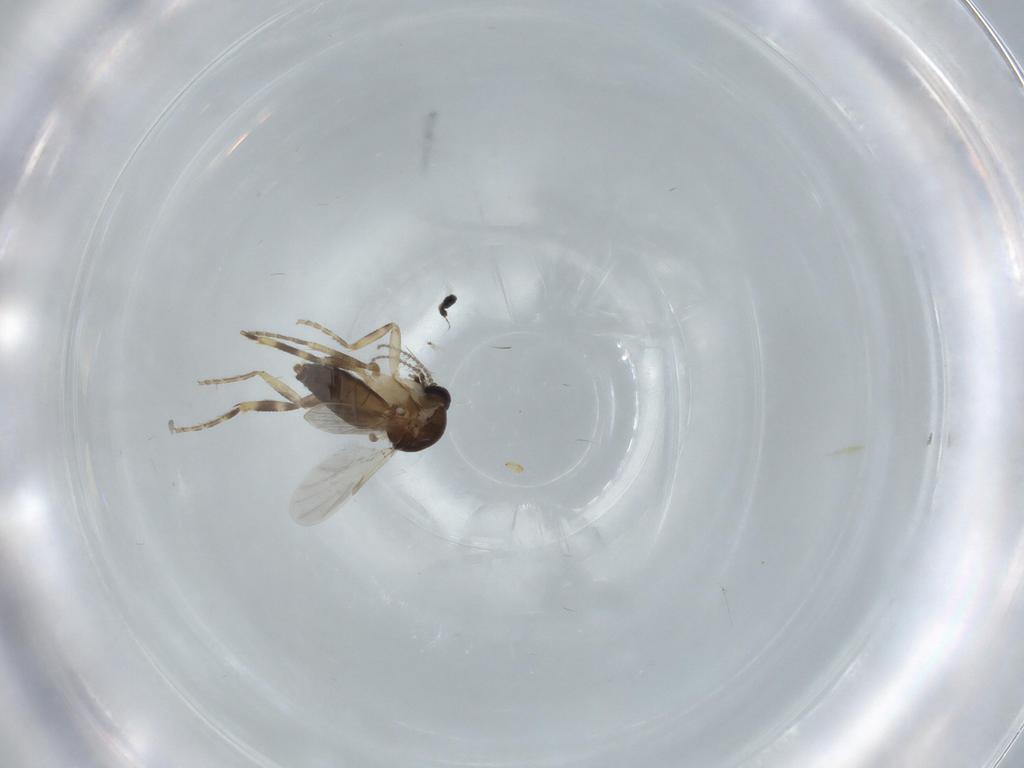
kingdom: Animalia
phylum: Arthropoda
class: Insecta
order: Diptera
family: Ceratopogonidae
